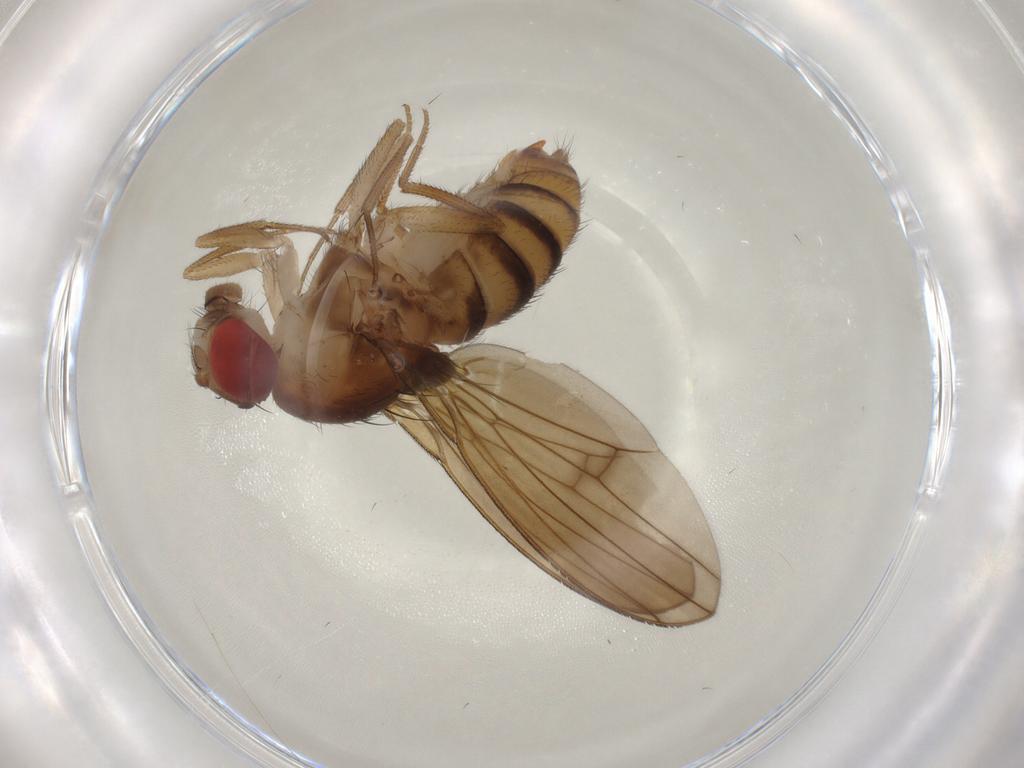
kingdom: Animalia
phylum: Arthropoda
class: Insecta
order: Diptera
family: Drosophilidae
